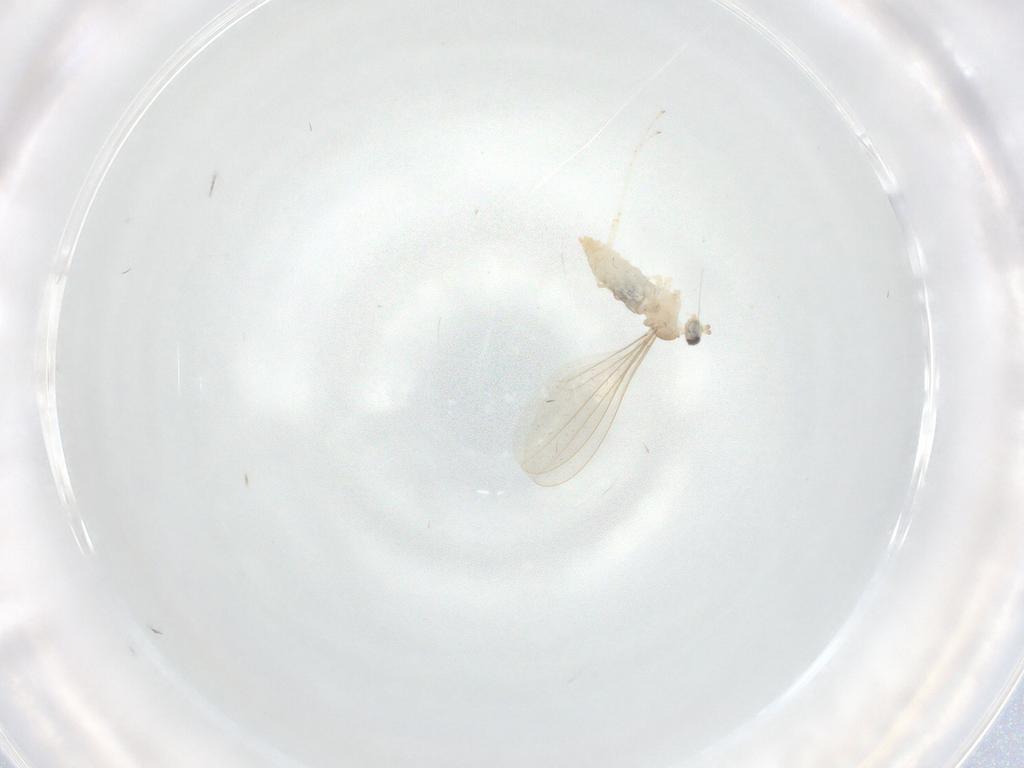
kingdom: Animalia
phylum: Arthropoda
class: Insecta
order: Diptera
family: Cecidomyiidae
